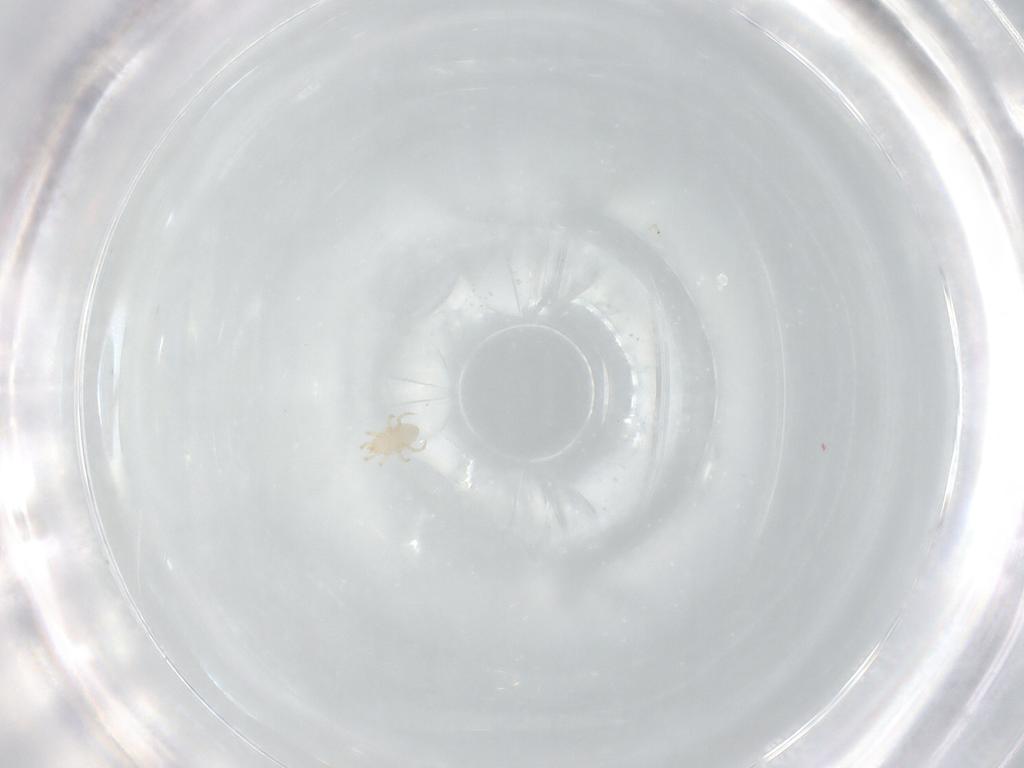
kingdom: Animalia
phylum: Arthropoda
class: Arachnida
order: Mesostigmata
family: Melicharidae
